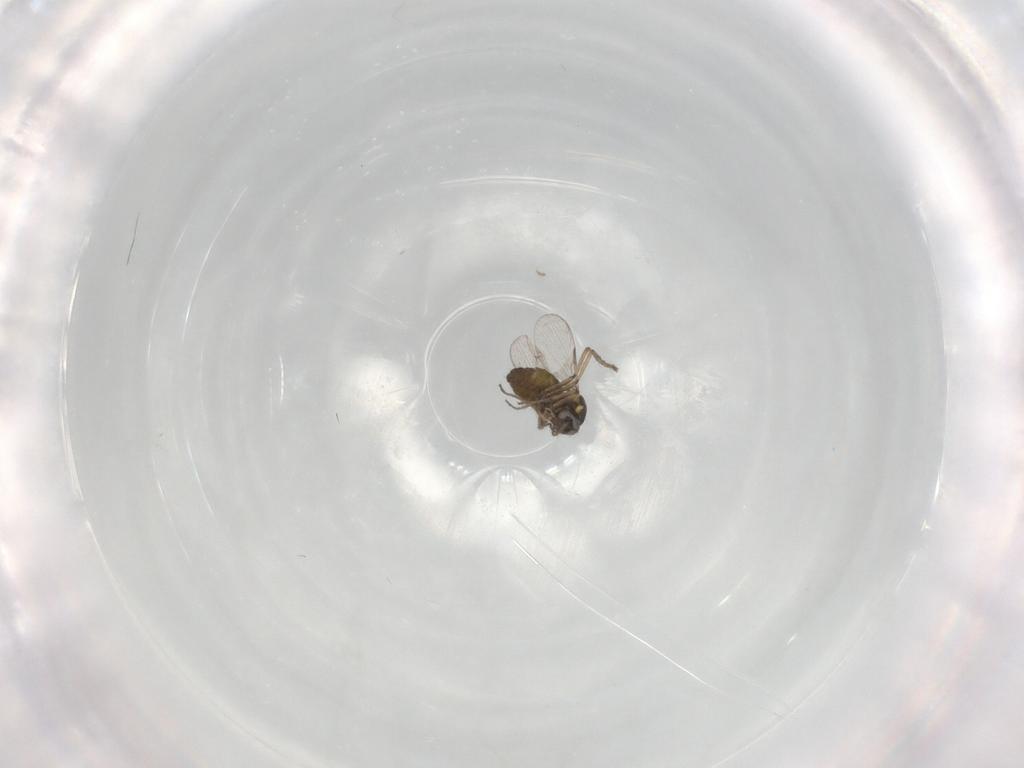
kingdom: Animalia
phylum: Arthropoda
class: Insecta
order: Diptera
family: Ceratopogonidae
